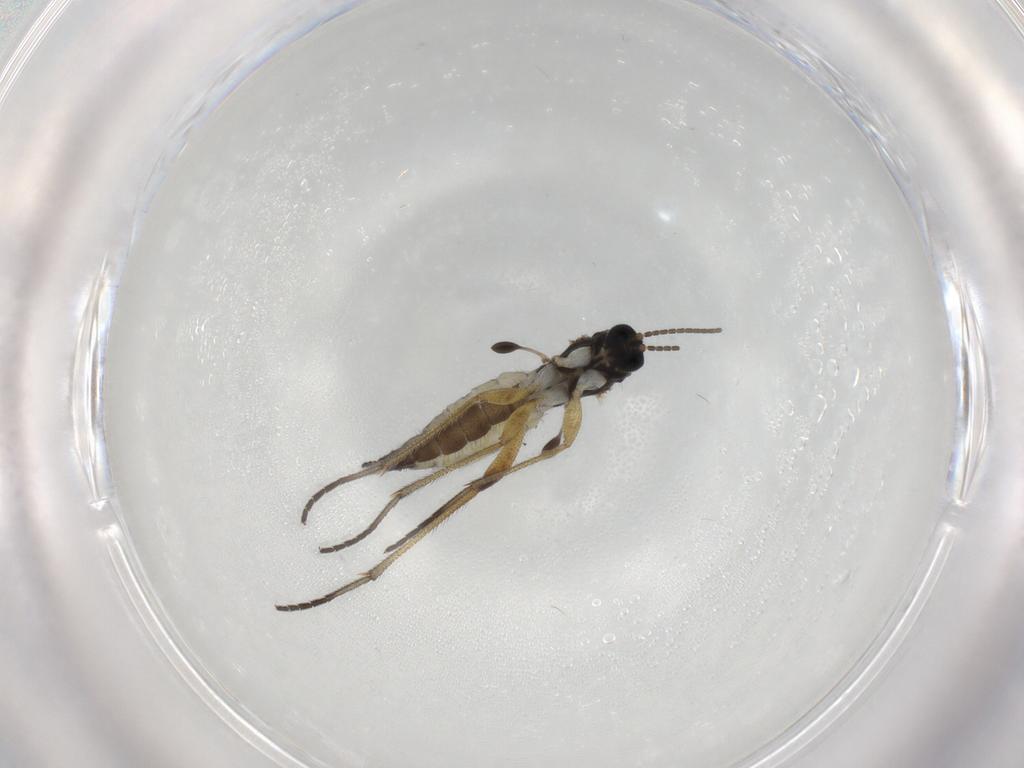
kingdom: Animalia
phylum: Arthropoda
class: Insecta
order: Diptera
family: Sciaridae
